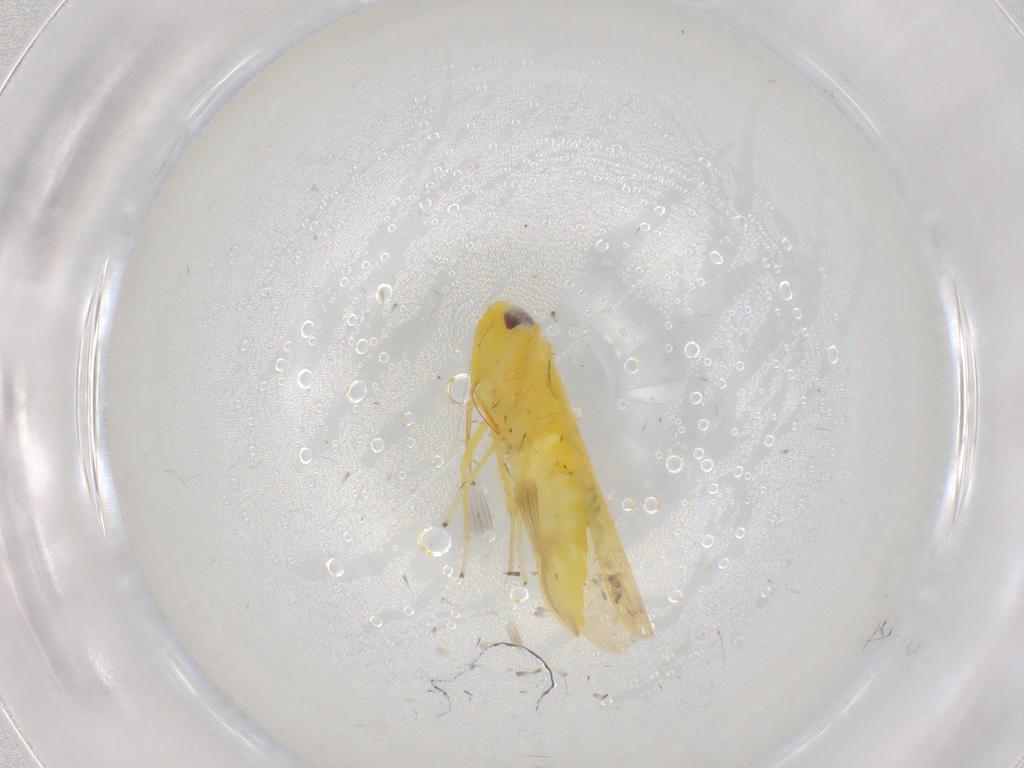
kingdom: Animalia
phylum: Arthropoda
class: Insecta
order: Hemiptera
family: Cicadellidae
